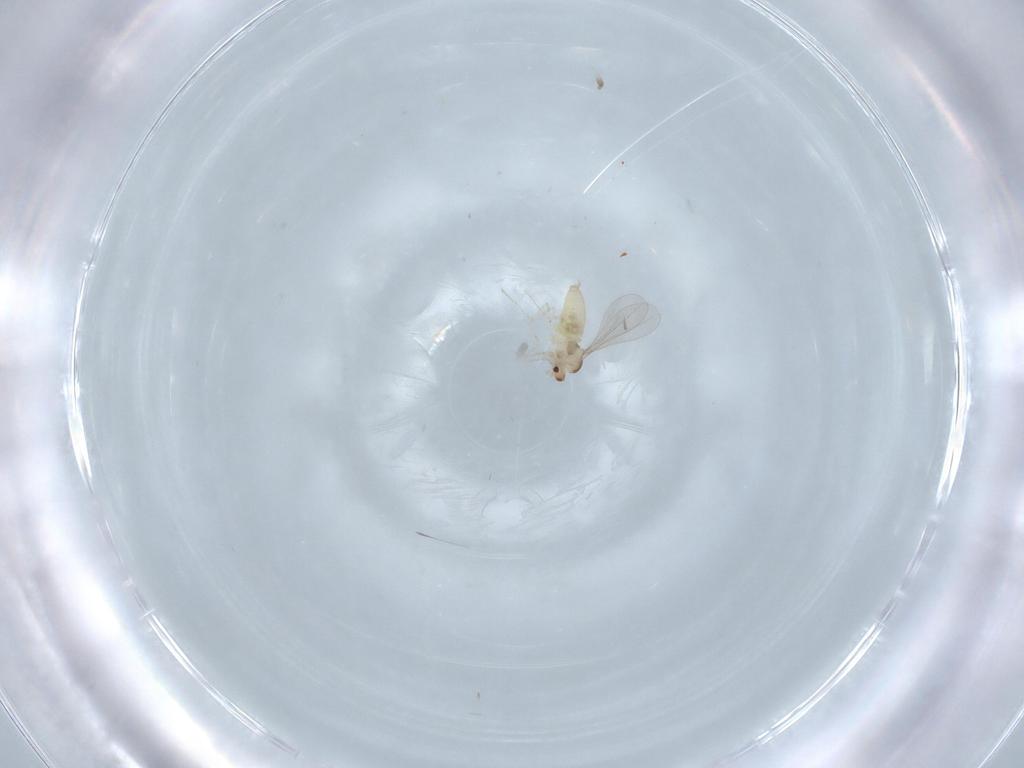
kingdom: Animalia
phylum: Arthropoda
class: Insecta
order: Diptera
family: Cecidomyiidae
